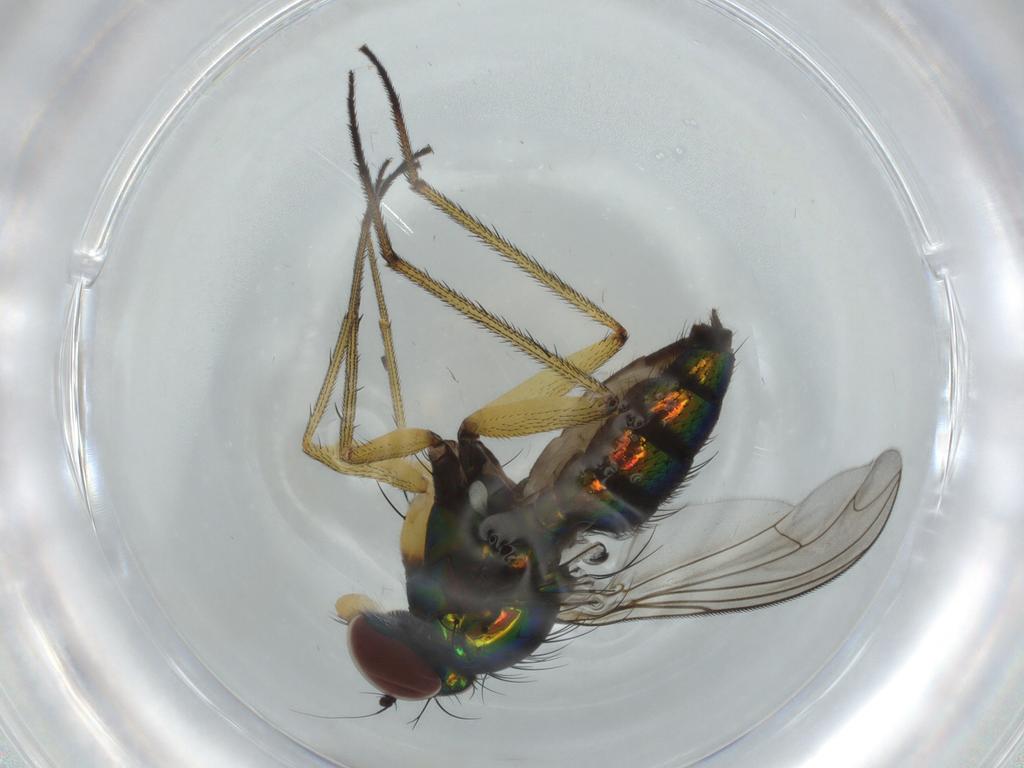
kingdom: Animalia
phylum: Arthropoda
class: Insecta
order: Diptera
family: Dolichopodidae
